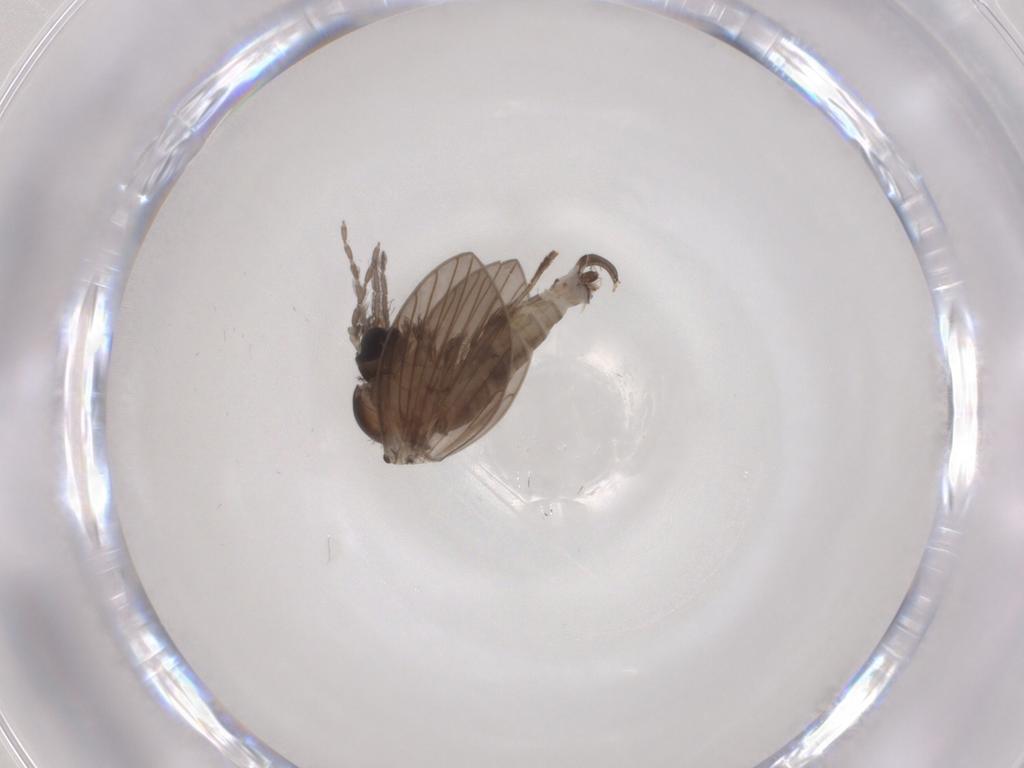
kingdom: Animalia
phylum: Arthropoda
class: Insecta
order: Diptera
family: Psychodidae
